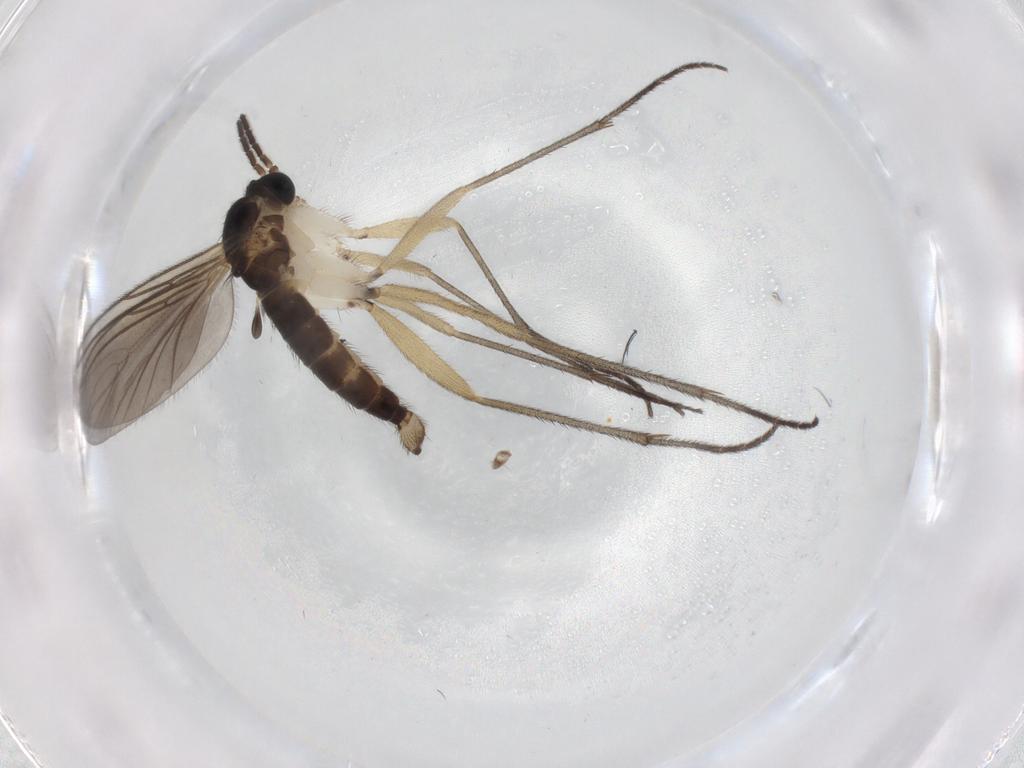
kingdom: Animalia
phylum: Arthropoda
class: Insecta
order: Diptera
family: Sciaridae
